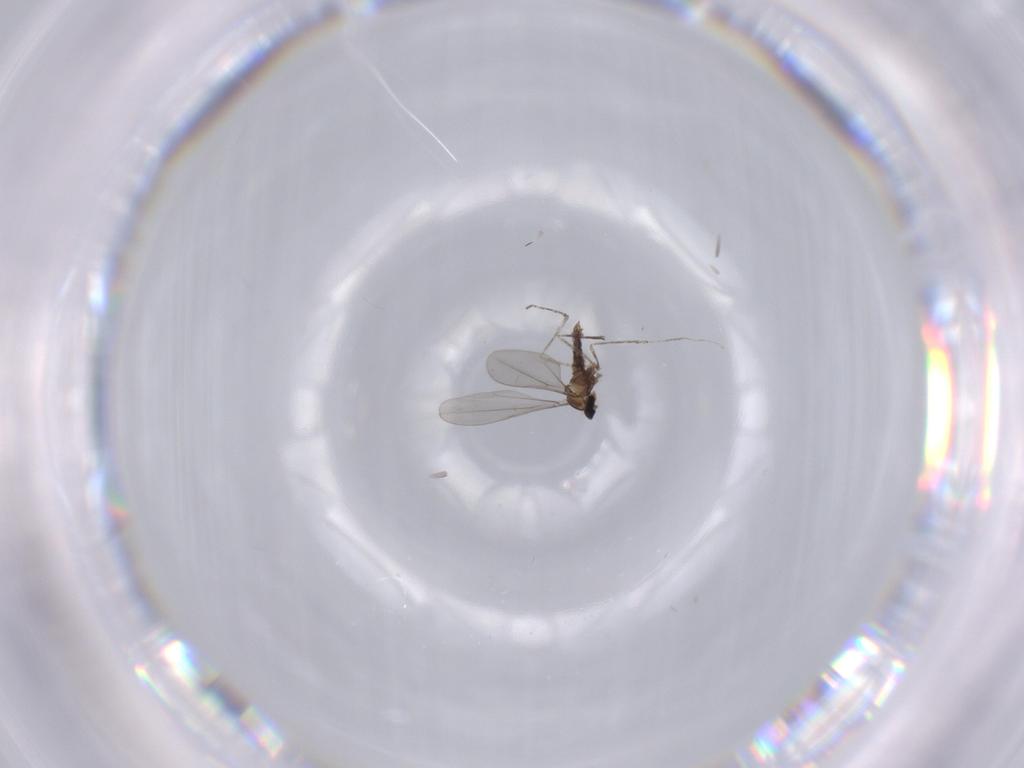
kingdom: Animalia
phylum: Arthropoda
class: Insecta
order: Diptera
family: Cecidomyiidae
